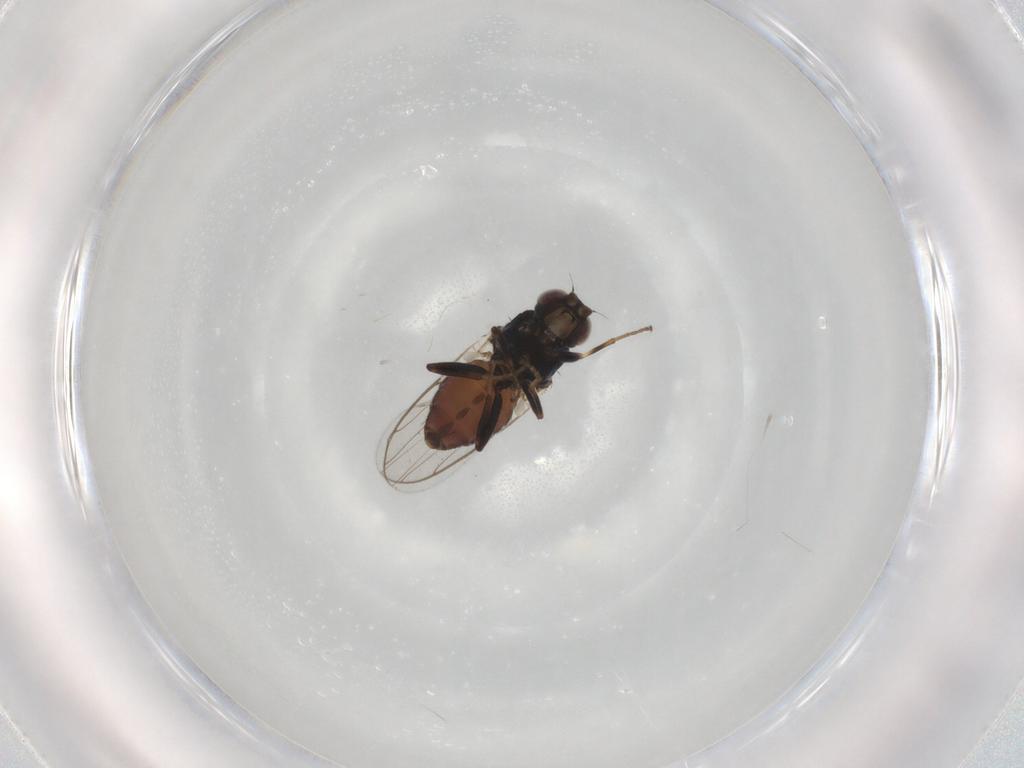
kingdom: Animalia
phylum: Arthropoda
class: Insecta
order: Diptera
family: Chloropidae
